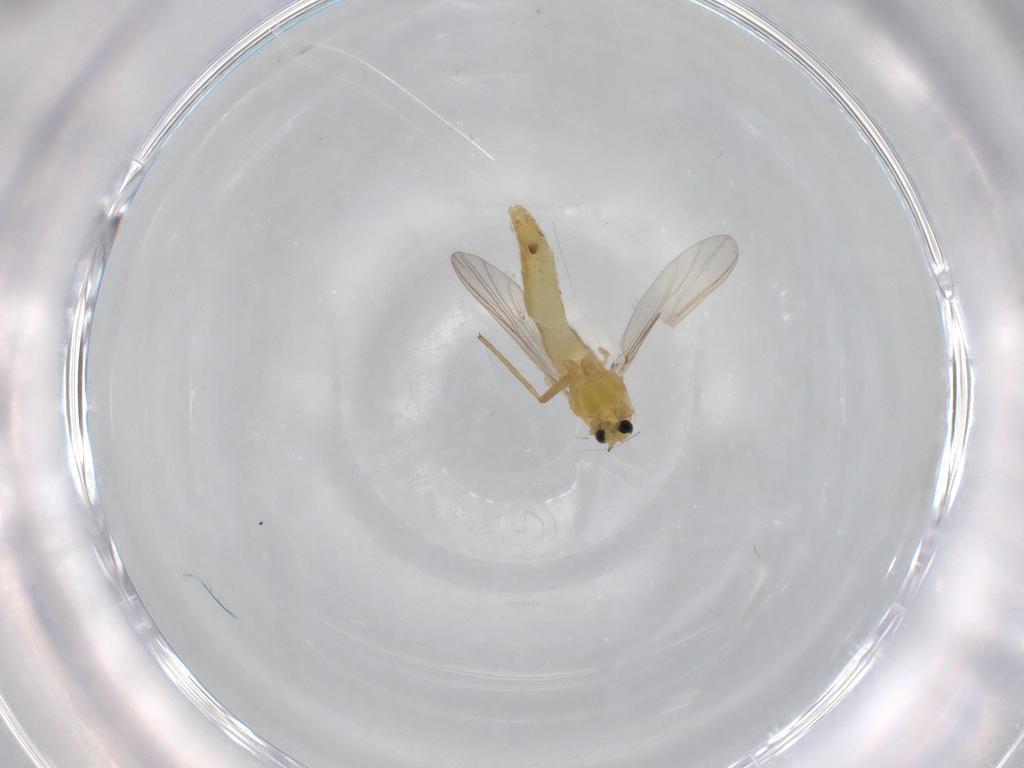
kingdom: Animalia
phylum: Arthropoda
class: Insecta
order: Diptera
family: Chironomidae
